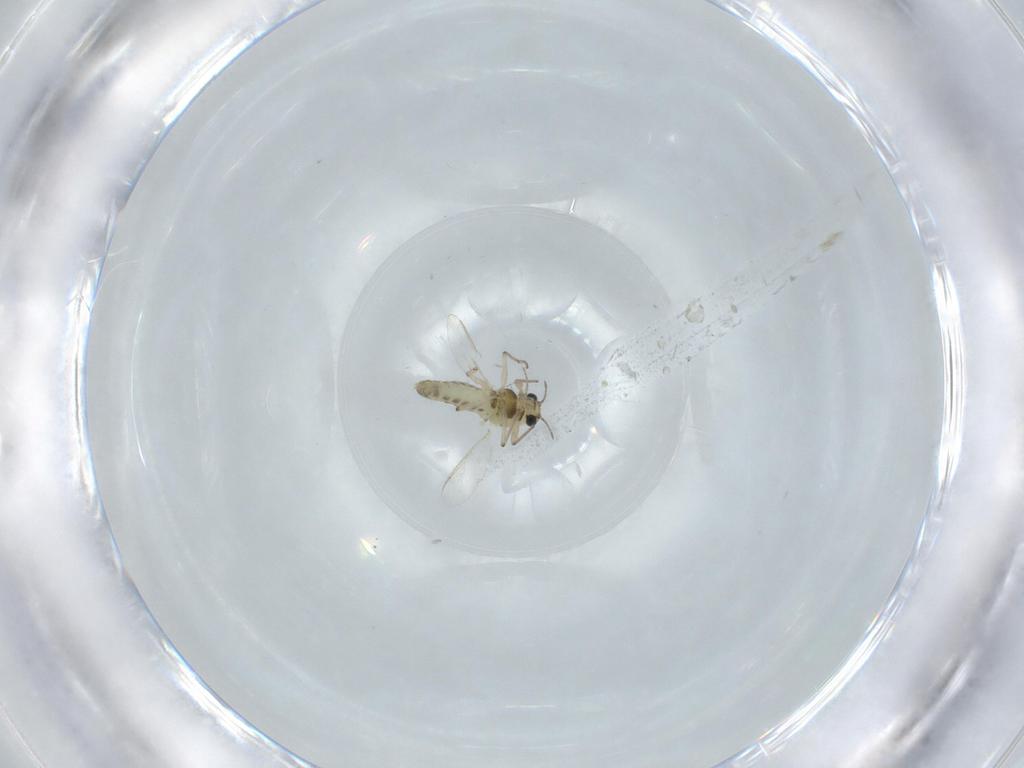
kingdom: Animalia
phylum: Arthropoda
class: Insecta
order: Diptera
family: Chironomidae
